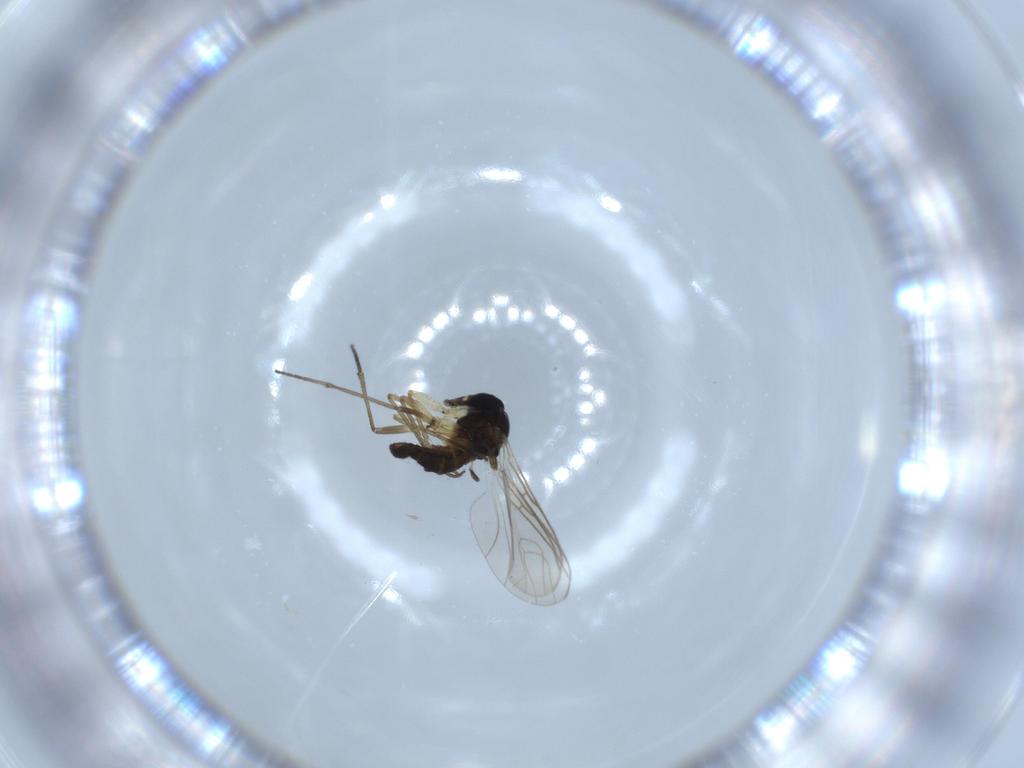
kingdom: Animalia
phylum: Arthropoda
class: Insecta
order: Diptera
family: Sciaridae
